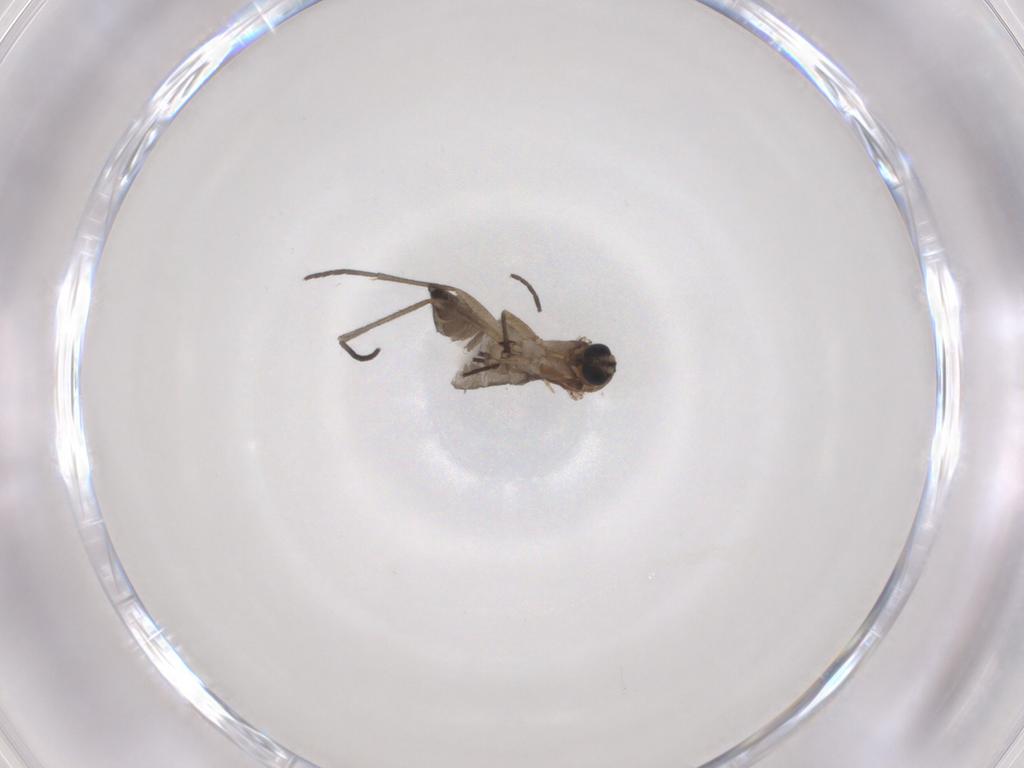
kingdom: Animalia
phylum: Arthropoda
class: Insecta
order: Diptera
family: Sciaridae
